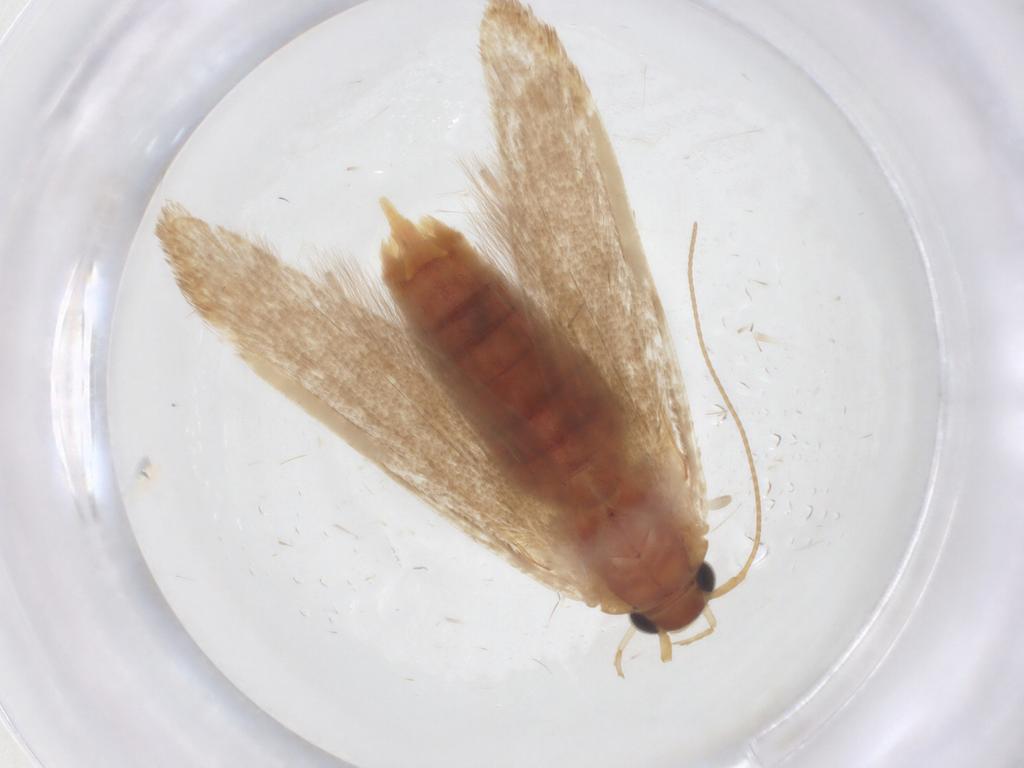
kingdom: Animalia
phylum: Arthropoda
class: Insecta
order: Lepidoptera
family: Blastobasidae
